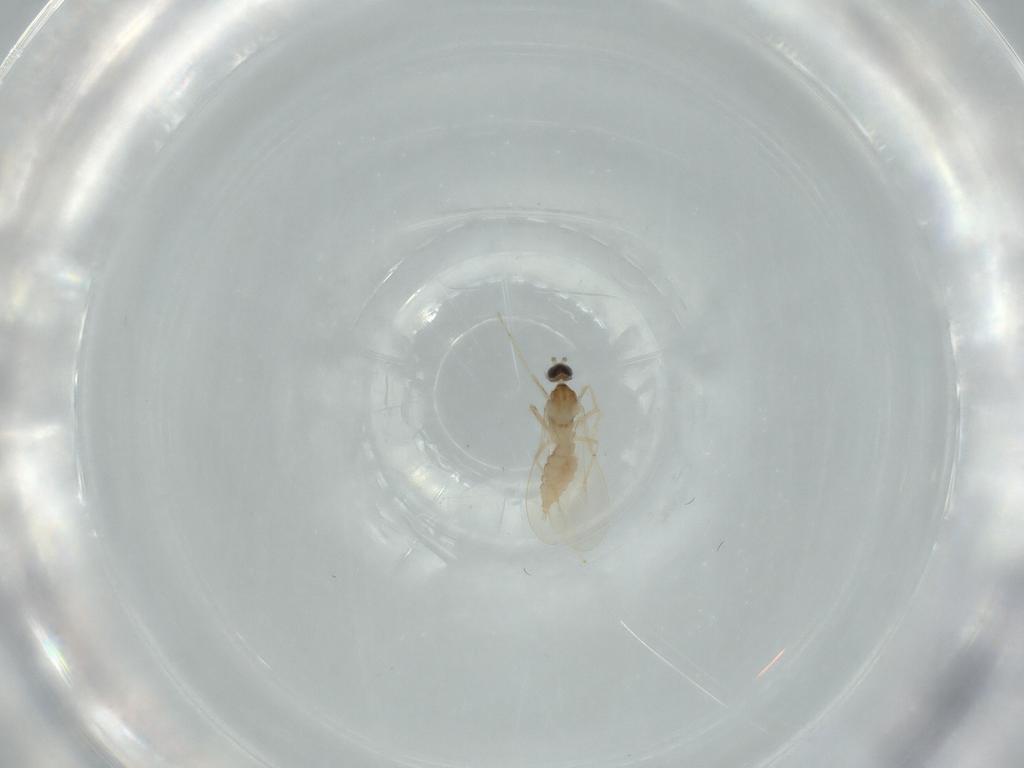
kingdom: Animalia
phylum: Arthropoda
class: Insecta
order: Diptera
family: Cecidomyiidae
